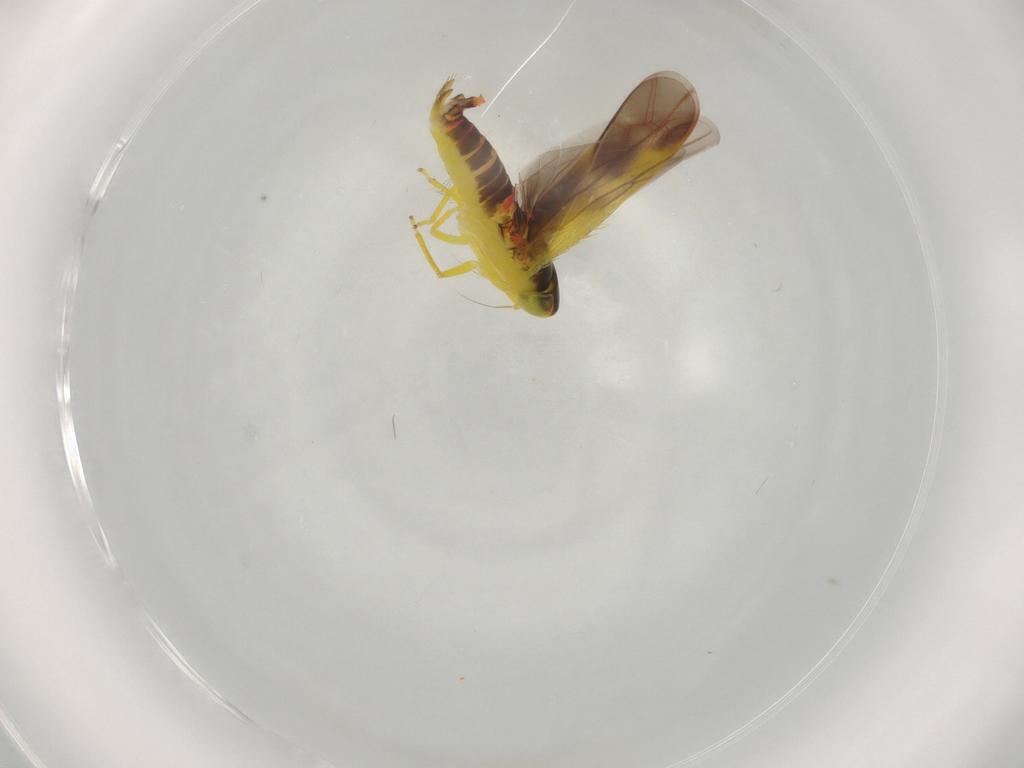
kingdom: Animalia
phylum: Arthropoda
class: Insecta
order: Hemiptera
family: Cicadellidae
